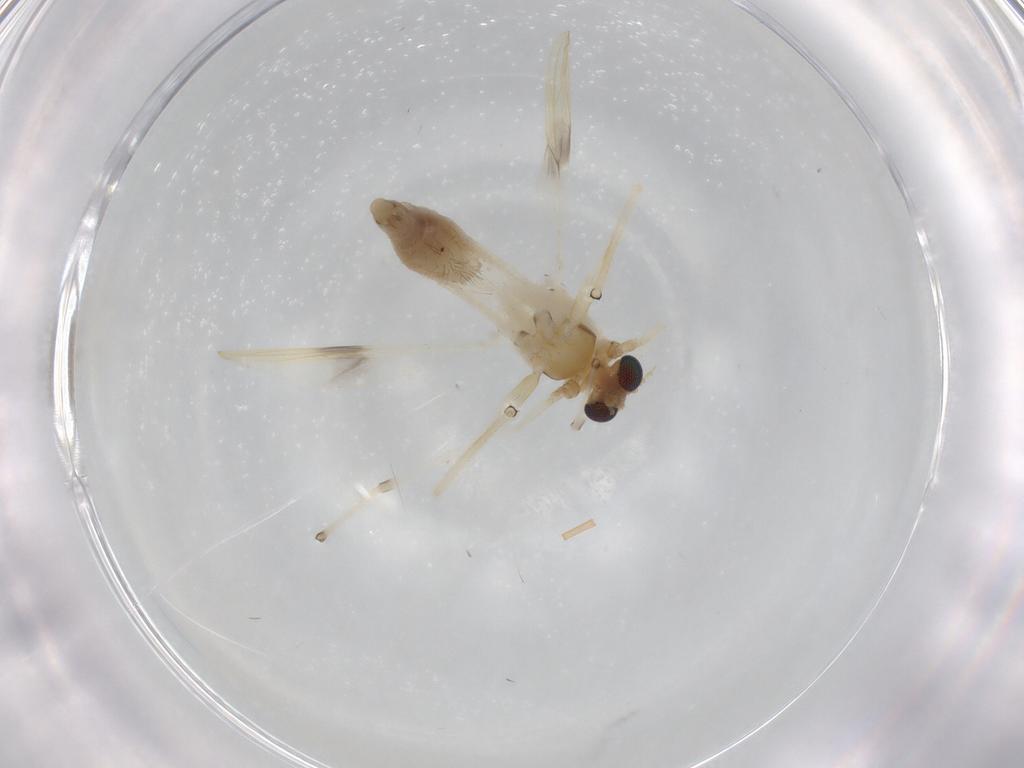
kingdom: Animalia
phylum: Arthropoda
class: Insecta
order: Diptera
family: Chironomidae
